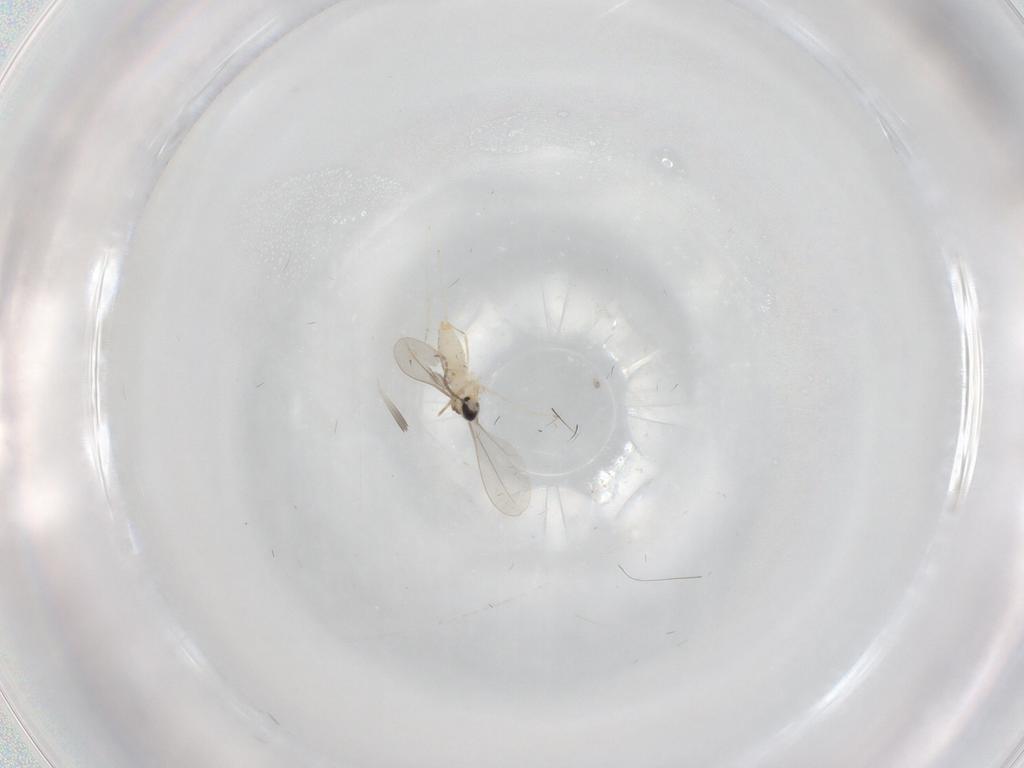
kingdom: Animalia
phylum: Arthropoda
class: Insecta
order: Diptera
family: Cecidomyiidae
